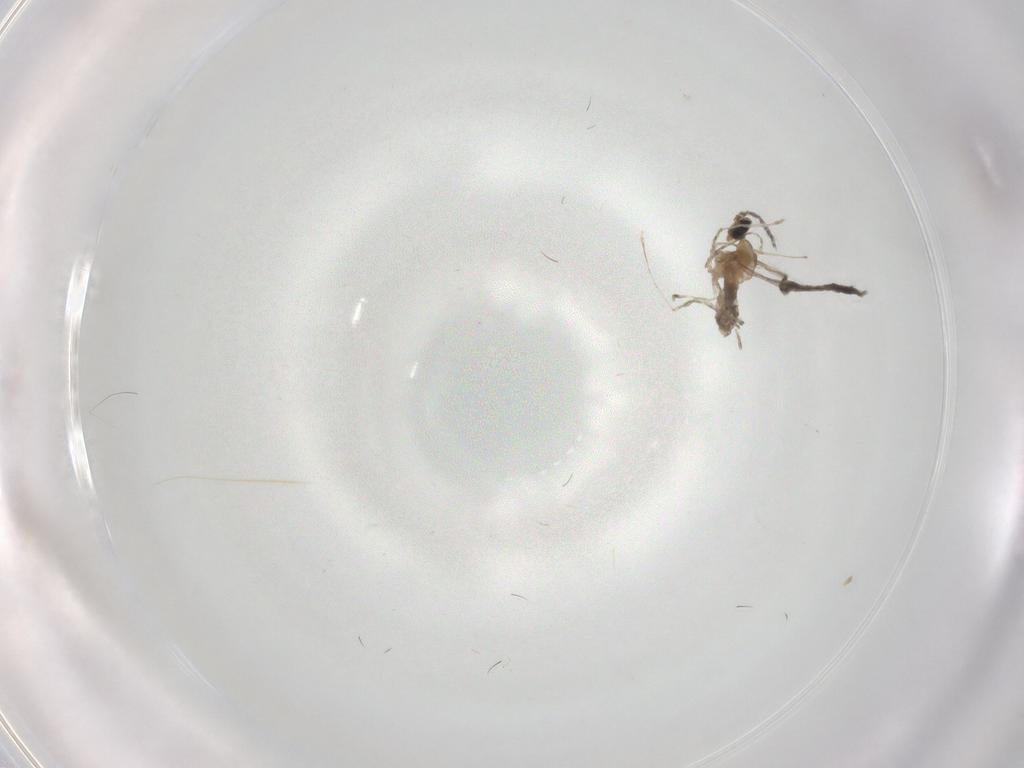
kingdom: Animalia
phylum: Arthropoda
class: Insecta
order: Diptera
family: Cecidomyiidae
